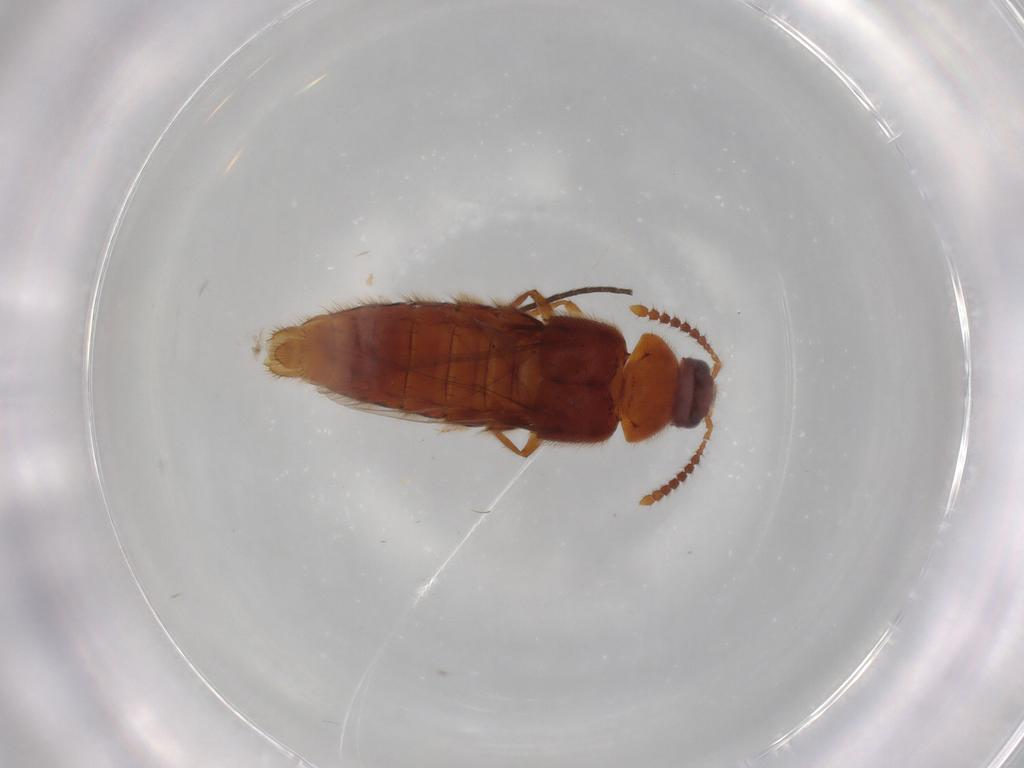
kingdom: Animalia
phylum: Arthropoda
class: Insecta
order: Coleoptera
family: Staphylinidae
